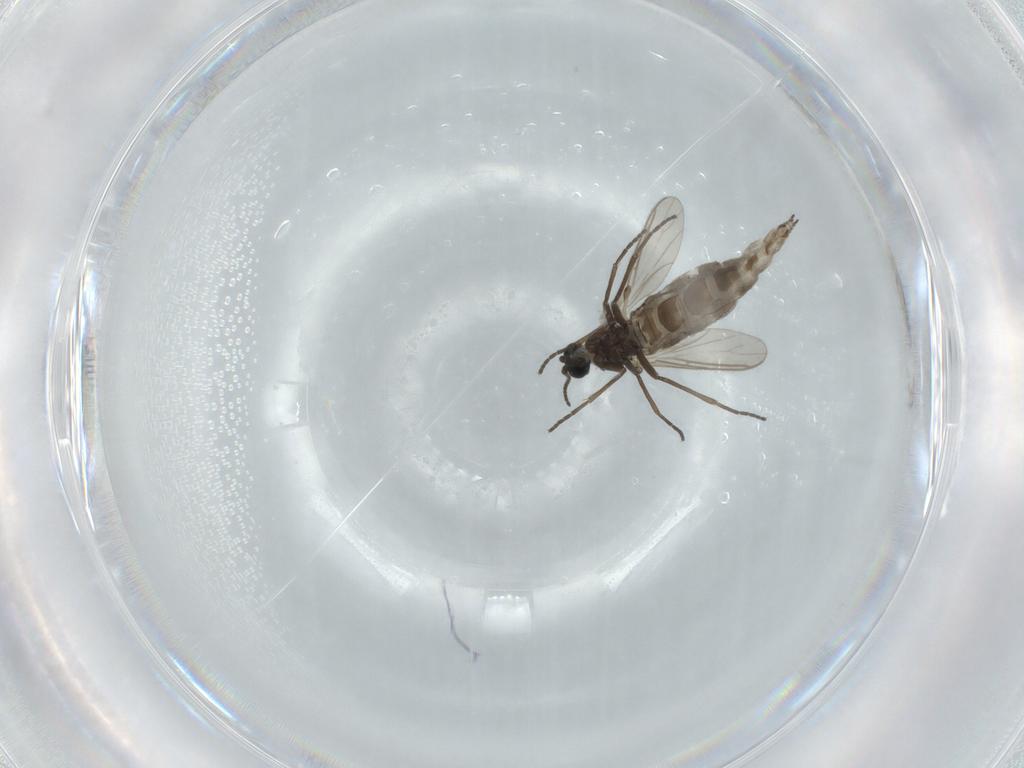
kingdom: Animalia
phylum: Arthropoda
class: Insecta
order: Diptera
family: Sciaridae
